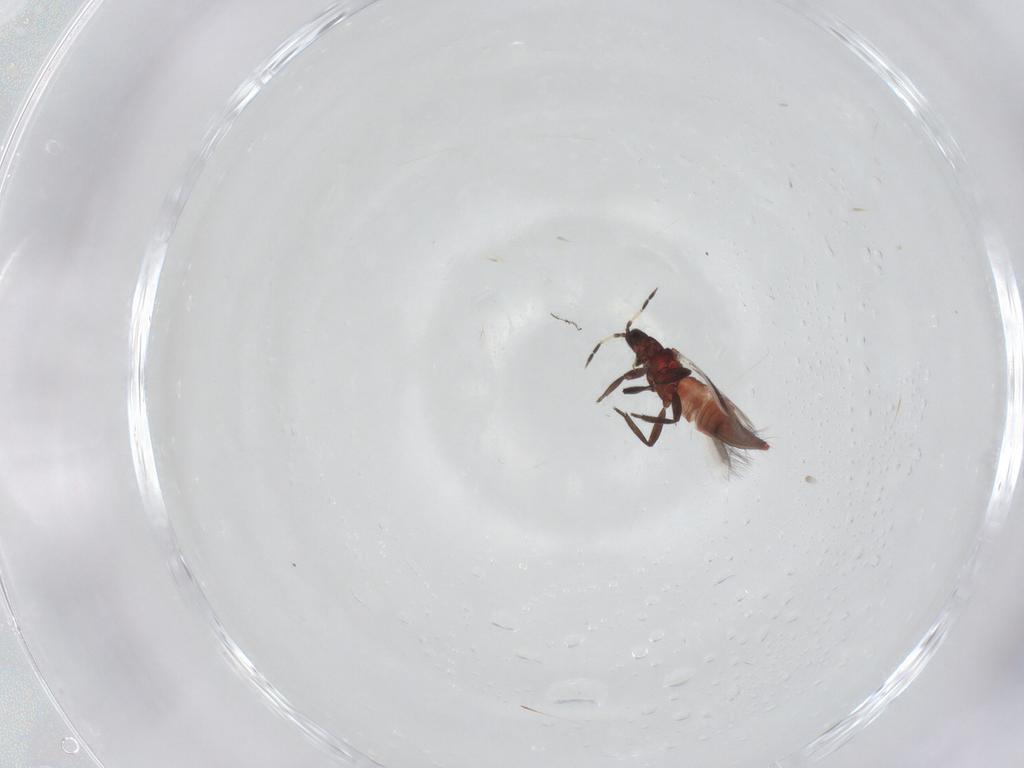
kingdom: Animalia
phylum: Arthropoda
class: Insecta
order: Thysanoptera
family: Aeolothripidae
